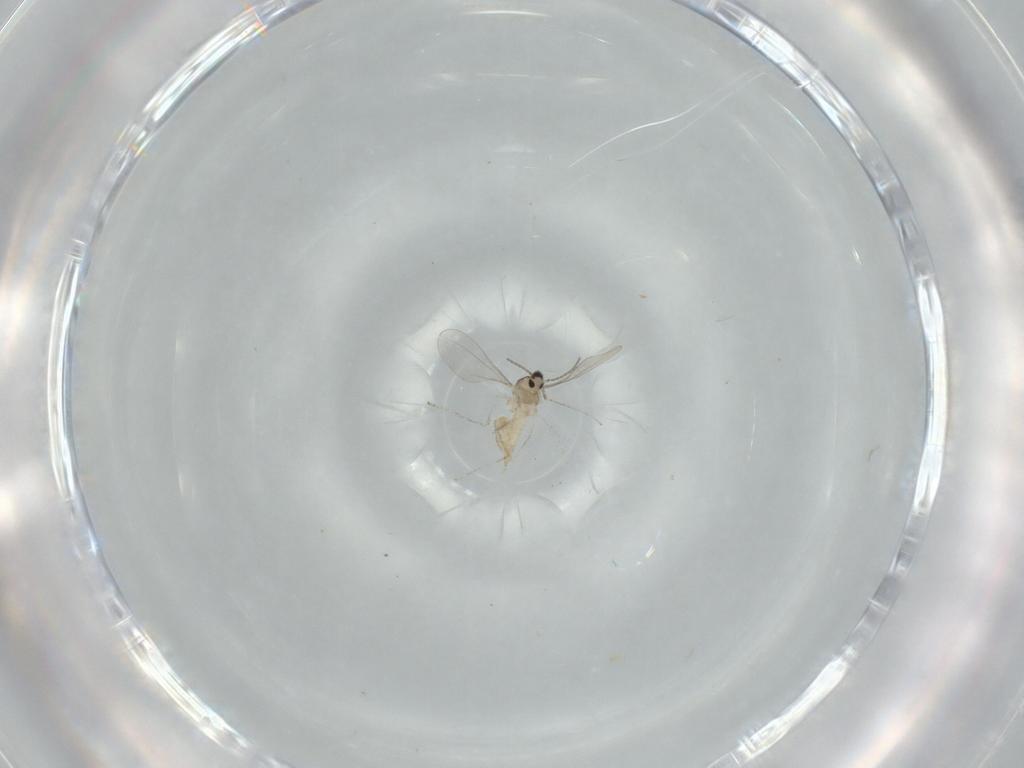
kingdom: Animalia
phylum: Arthropoda
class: Insecta
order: Diptera
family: Cecidomyiidae
